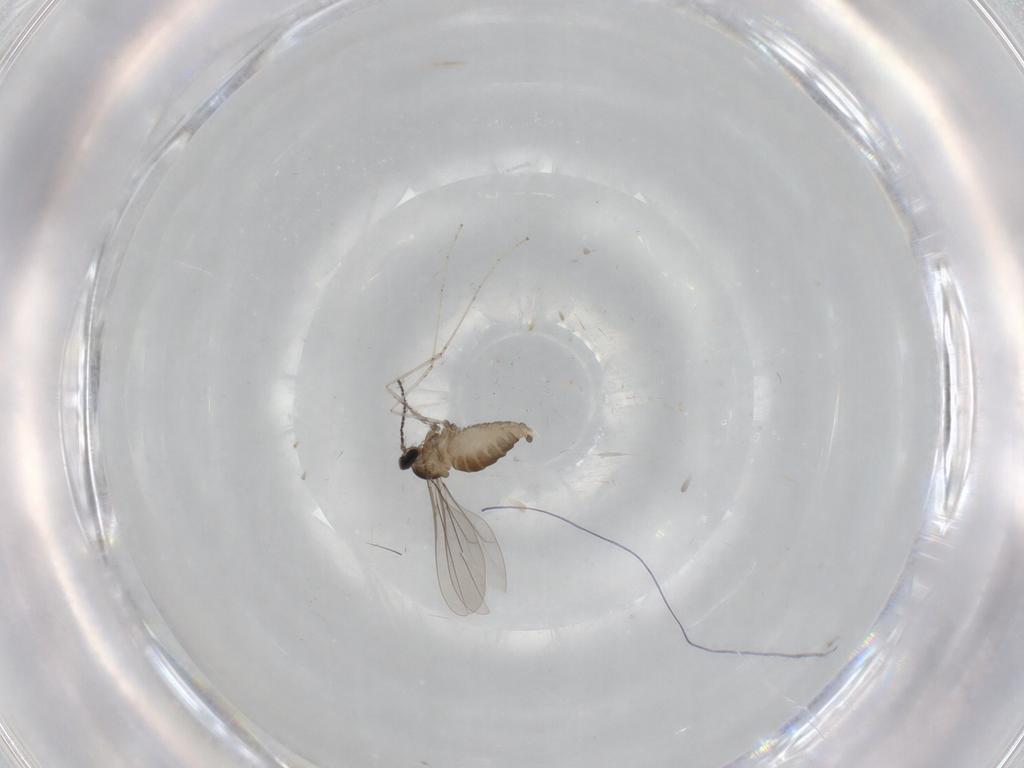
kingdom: Animalia
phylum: Arthropoda
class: Insecta
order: Diptera
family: Cecidomyiidae
